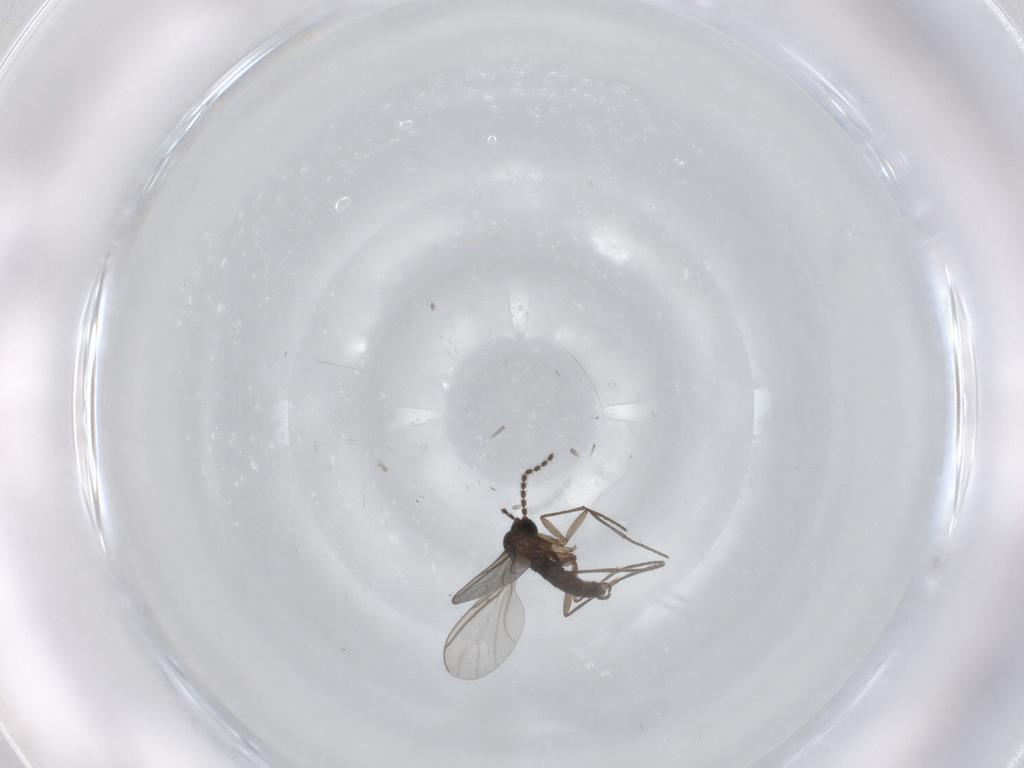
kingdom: Animalia
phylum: Arthropoda
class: Insecta
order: Diptera
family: Sciaridae
